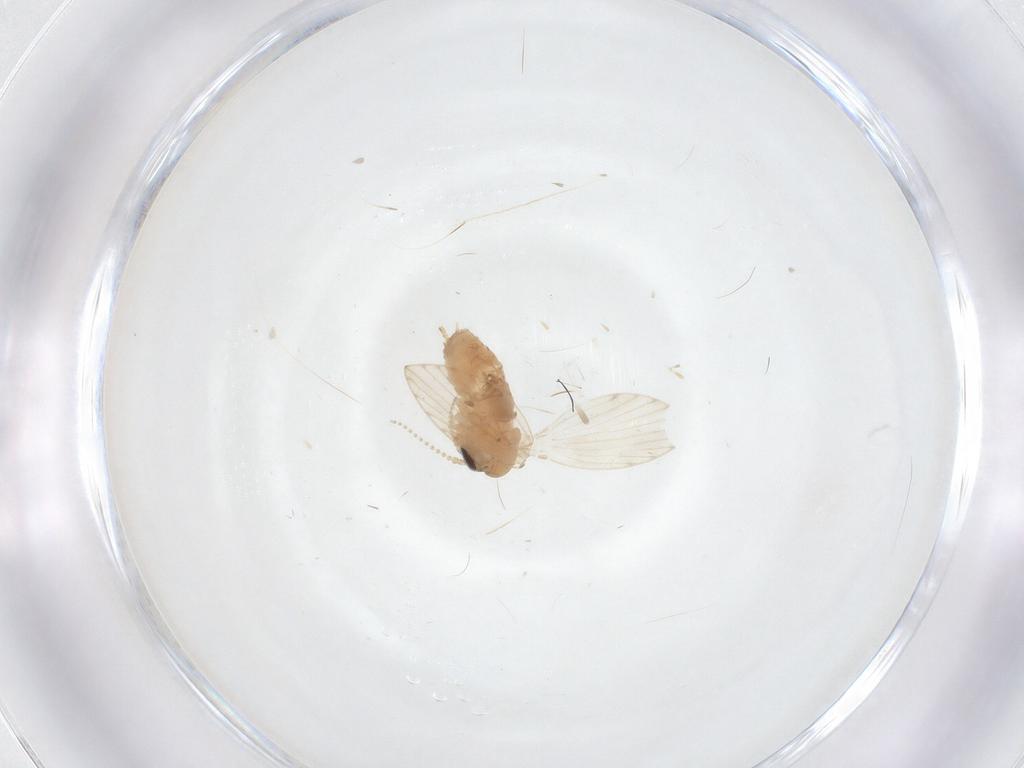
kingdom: Animalia
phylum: Arthropoda
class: Insecta
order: Diptera
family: Psychodidae
